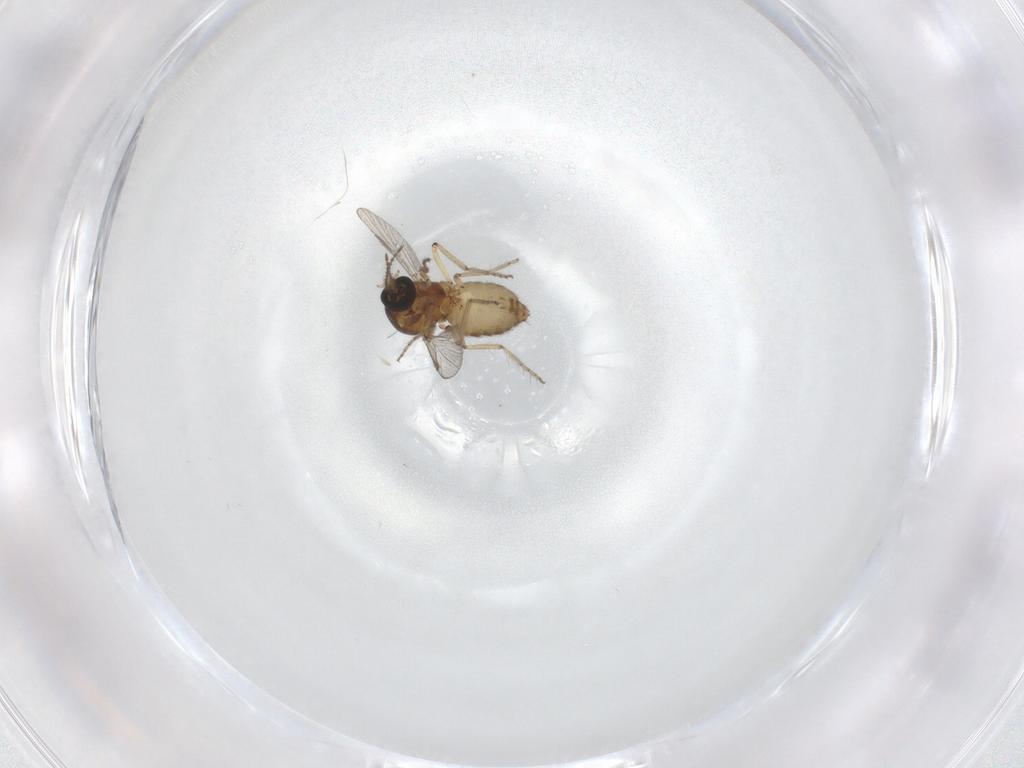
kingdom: Animalia
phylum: Arthropoda
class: Insecta
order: Diptera
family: Ceratopogonidae
